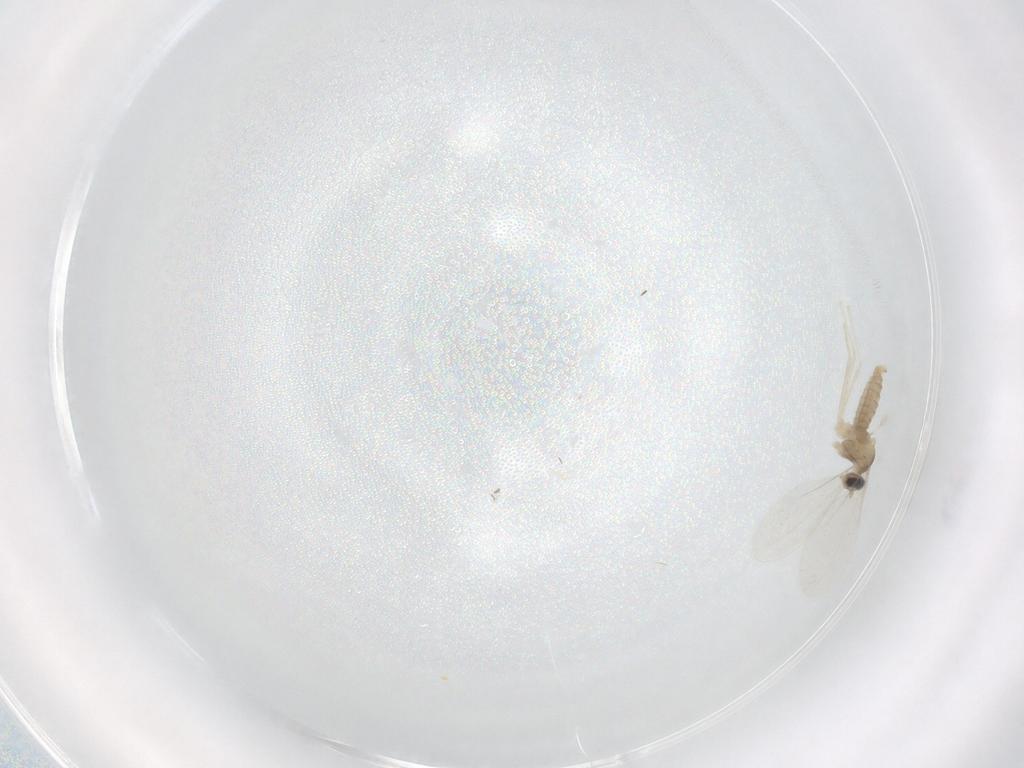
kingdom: Animalia
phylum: Arthropoda
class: Insecta
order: Diptera
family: Cecidomyiidae
